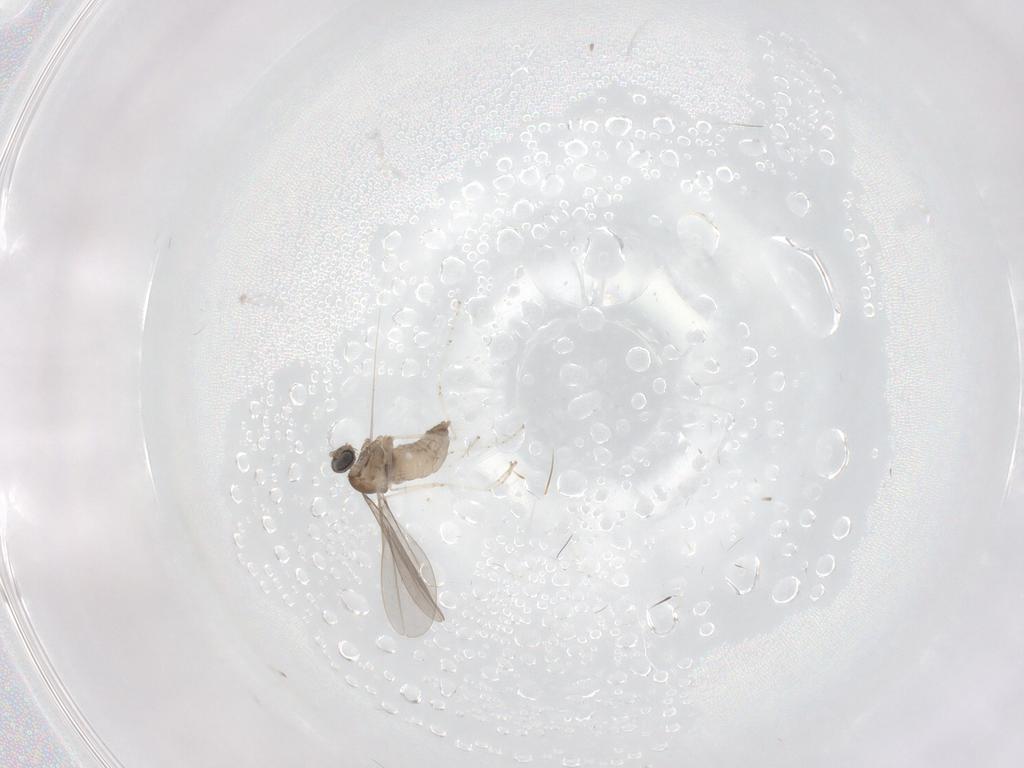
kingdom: Animalia
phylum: Arthropoda
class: Insecta
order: Diptera
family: Cecidomyiidae
